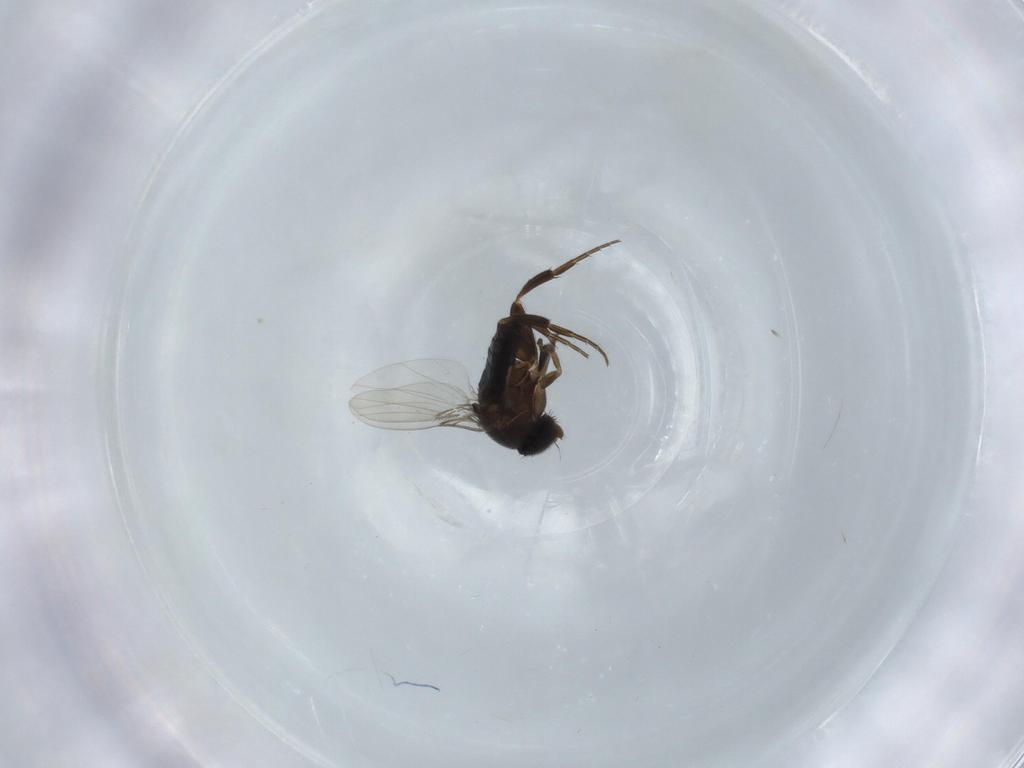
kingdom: Animalia
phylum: Arthropoda
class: Insecta
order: Diptera
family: Phoridae
